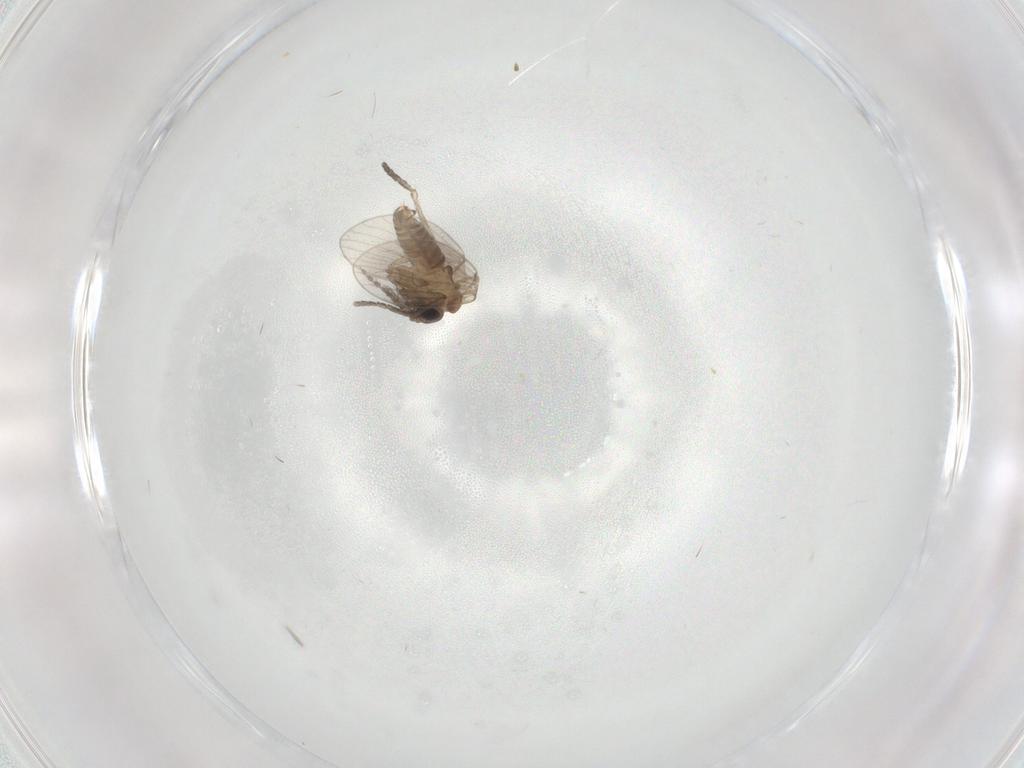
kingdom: Animalia
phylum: Arthropoda
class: Insecta
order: Diptera
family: Psychodidae
